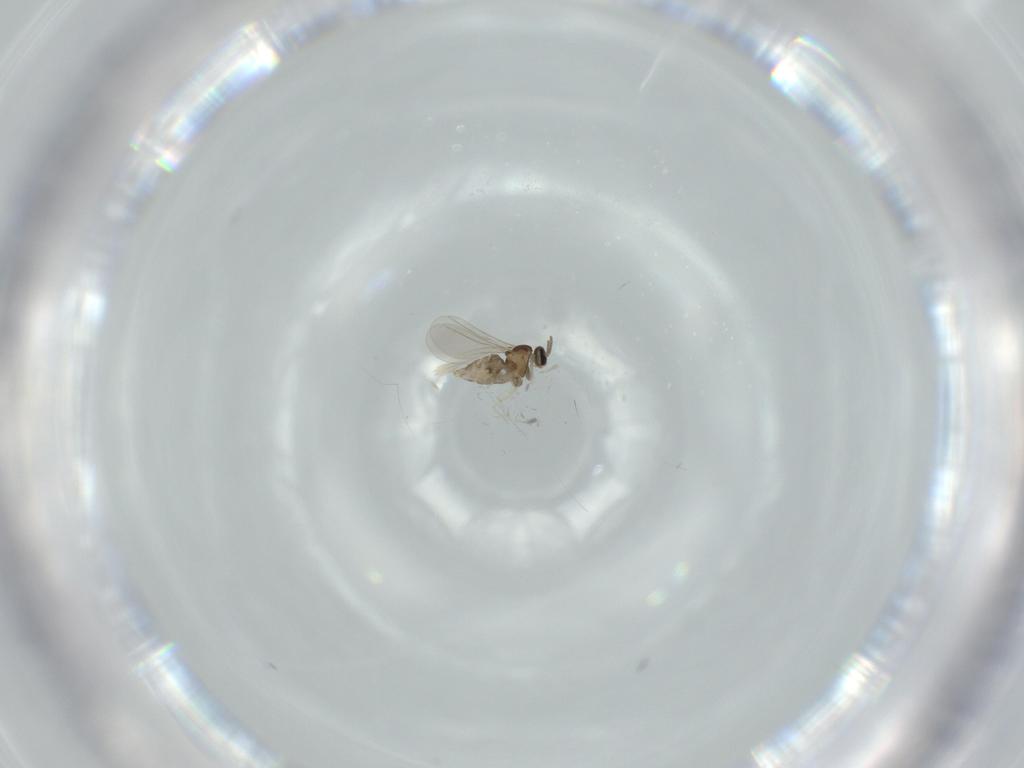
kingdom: Animalia
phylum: Arthropoda
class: Insecta
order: Diptera
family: Cecidomyiidae
